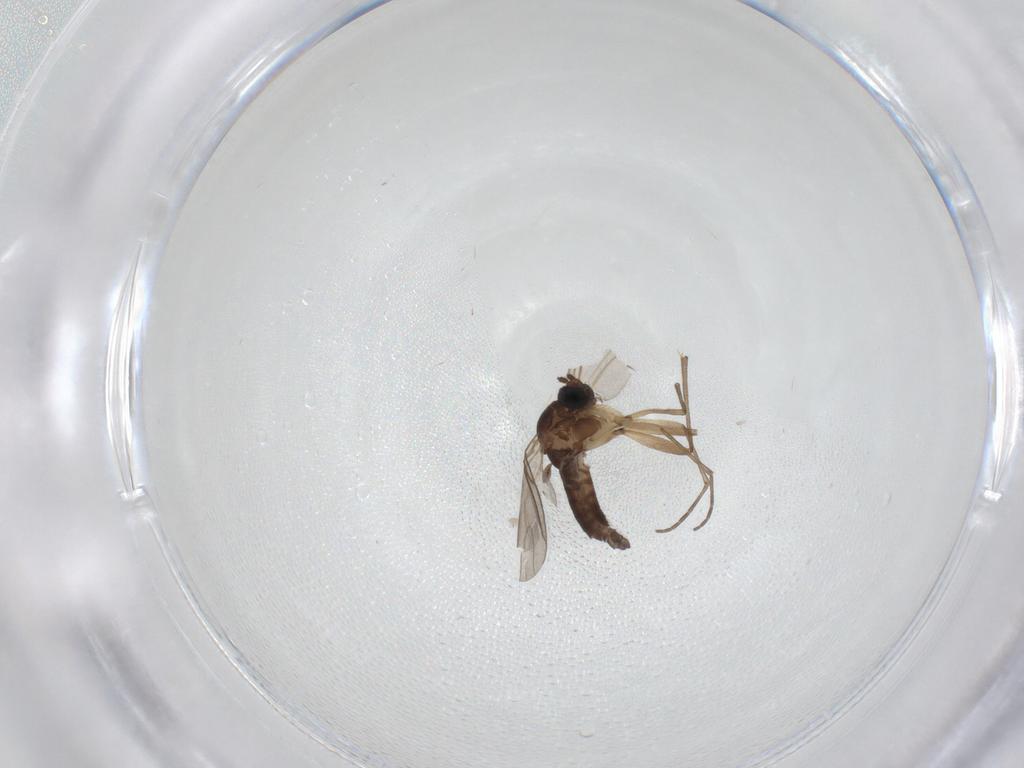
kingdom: Animalia
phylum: Arthropoda
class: Insecta
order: Diptera
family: Sciaridae
